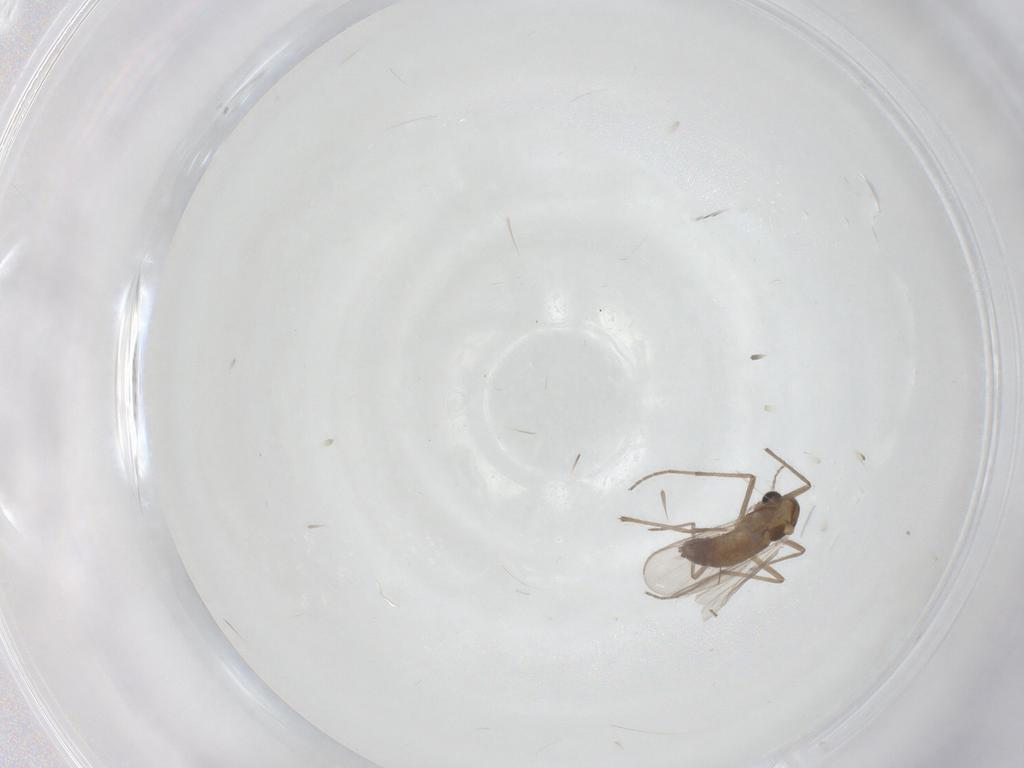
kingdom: Animalia
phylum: Arthropoda
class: Insecta
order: Diptera
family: Chironomidae
